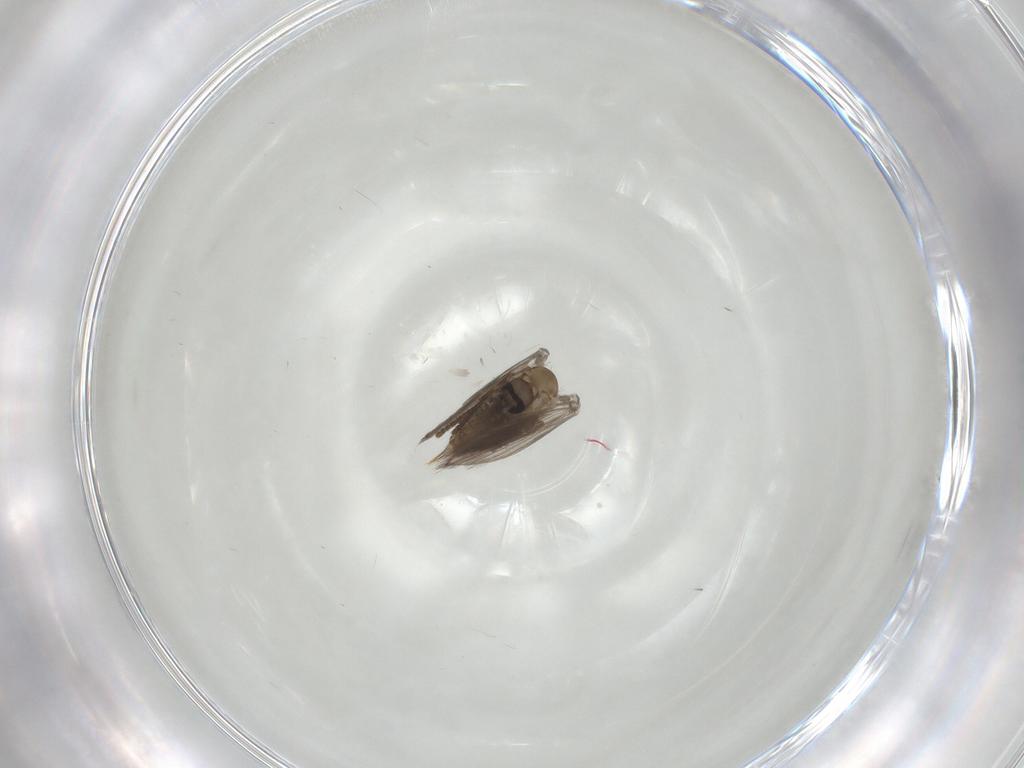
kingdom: Animalia
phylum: Arthropoda
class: Insecta
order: Diptera
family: Psychodidae
